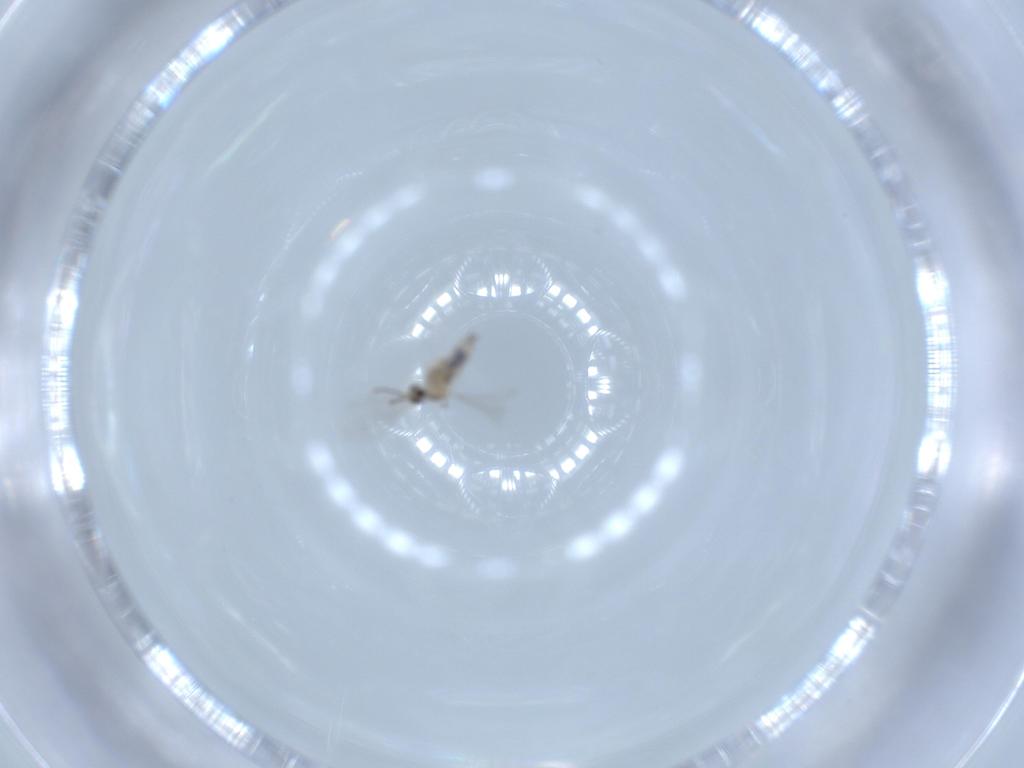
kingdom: Animalia
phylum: Arthropoda
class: Insecta
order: Diptera
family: Cecidomyiidae
